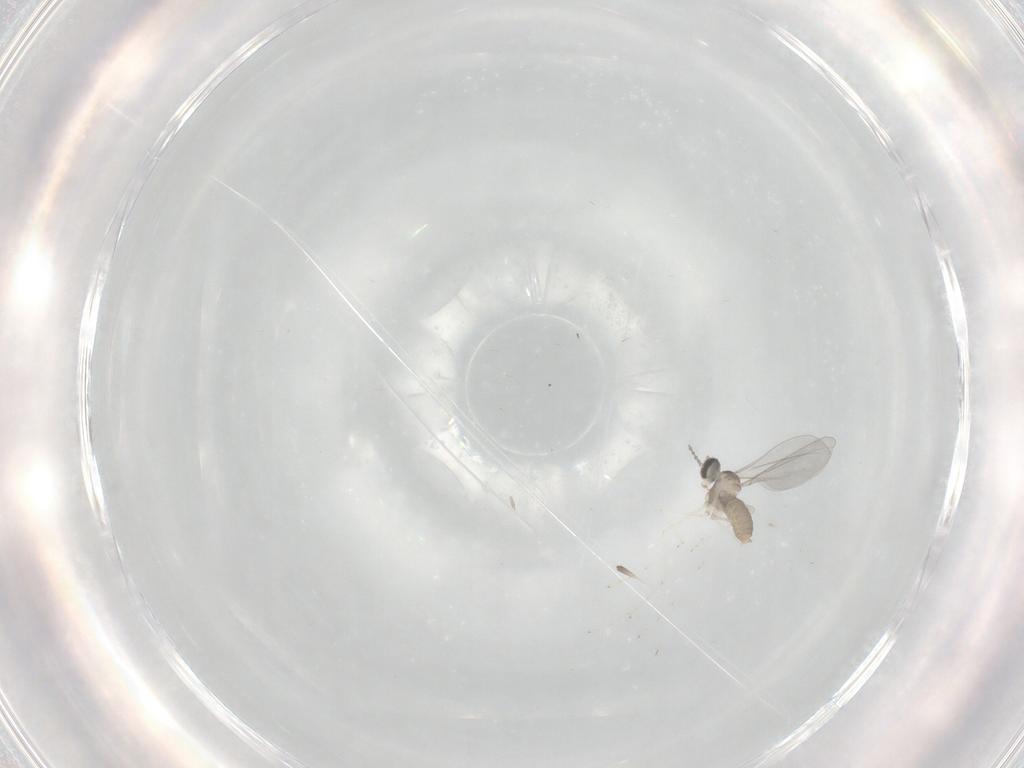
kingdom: Animalia
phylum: Arthropoda
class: Insecta
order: Diptera
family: Cecidomyiidae
